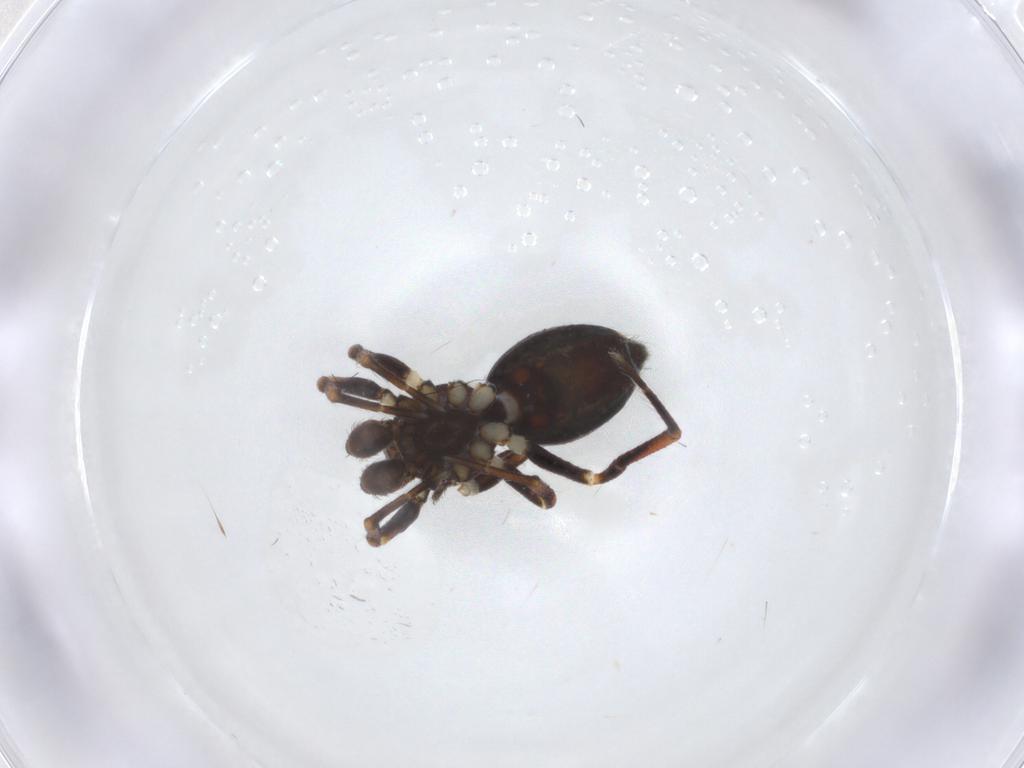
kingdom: Animalia
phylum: Arthropoda
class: Arachnida
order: Araneae
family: Theridiidae
